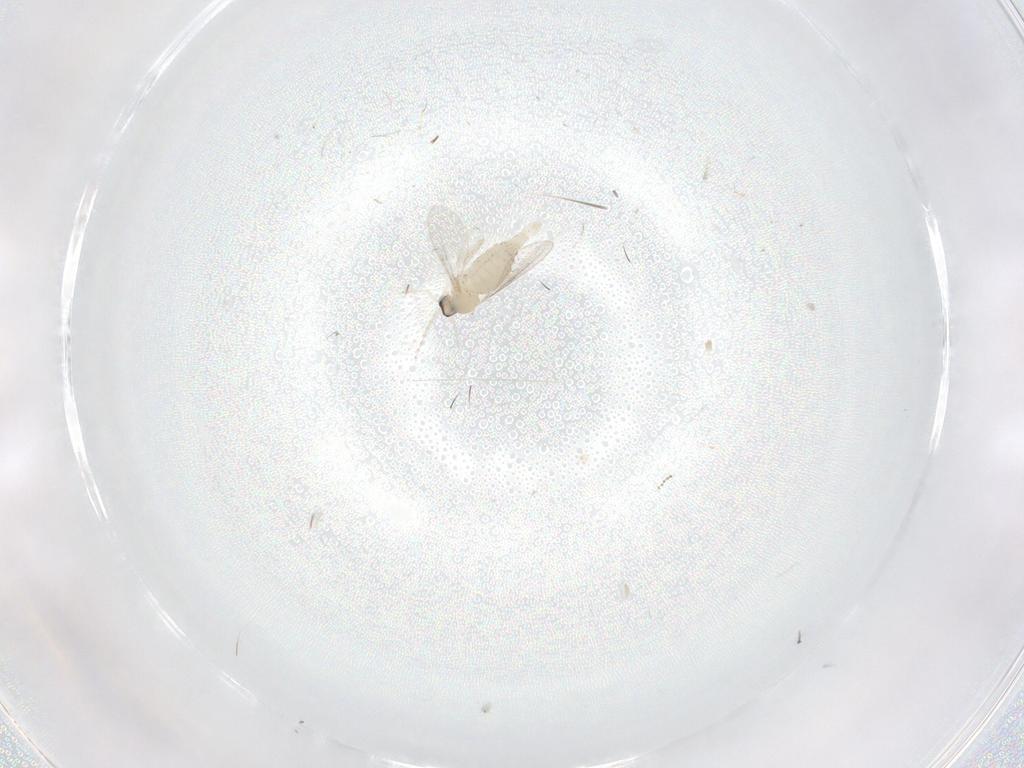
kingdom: Animalia
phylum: Arthropoda
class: Insecta
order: Diptera
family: Cecidomyiidae
